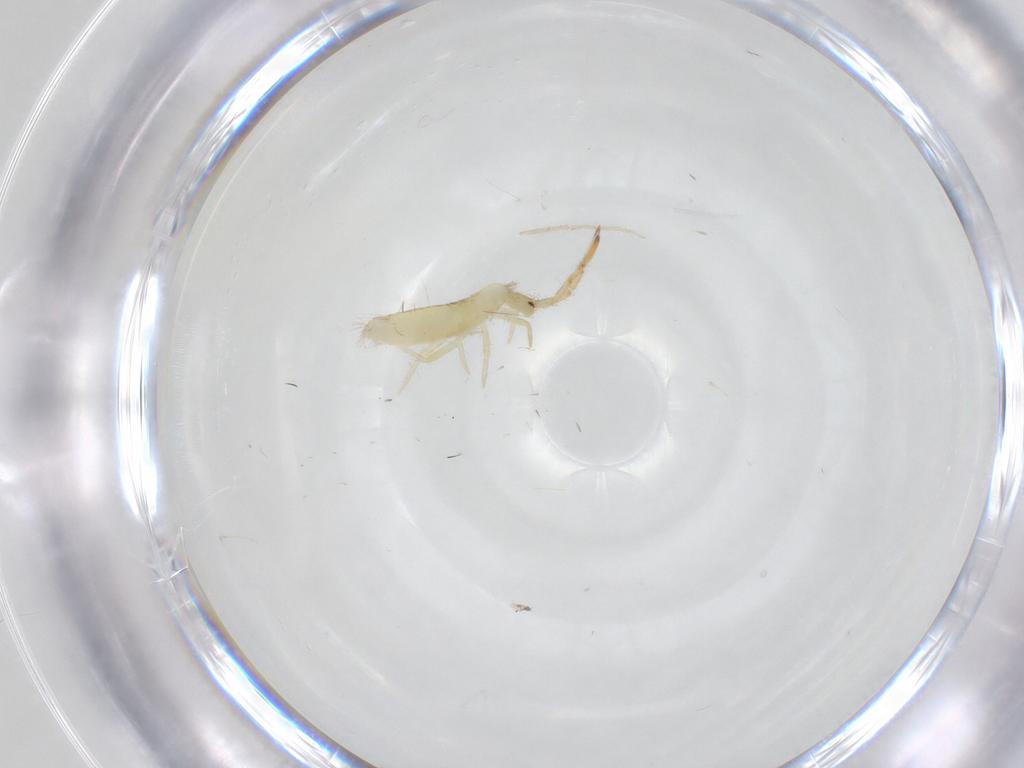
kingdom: Animalia
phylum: Arthropoda
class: Collembola
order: Entomobryomorpha
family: Entomobryidae
